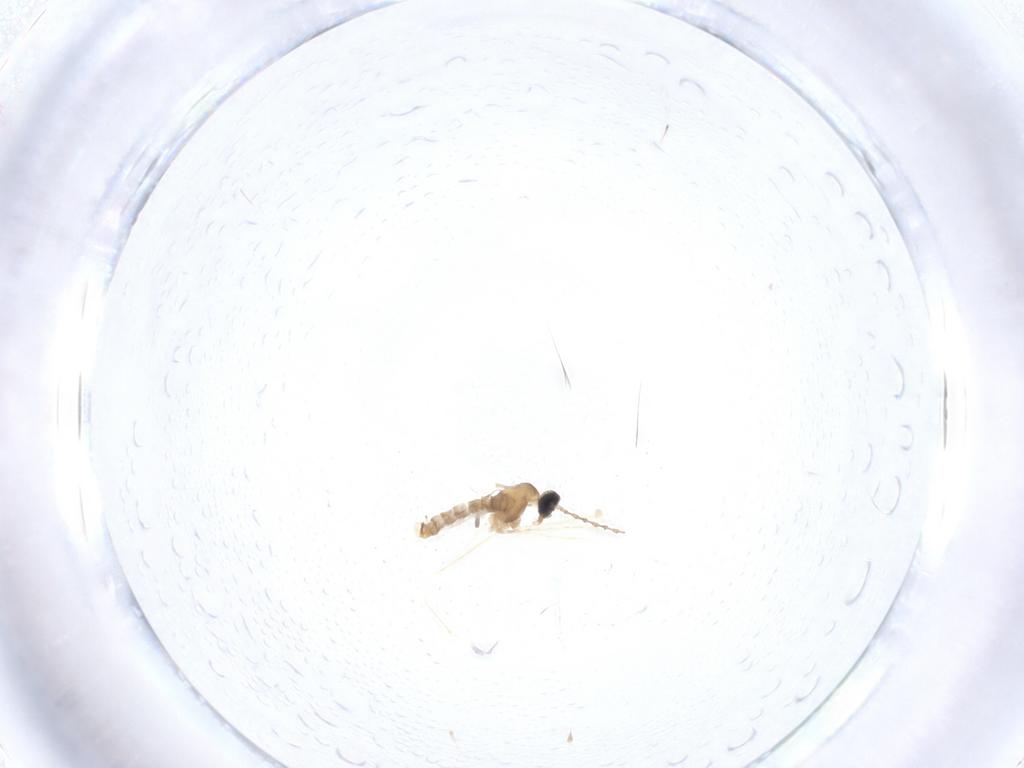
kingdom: Animalia
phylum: Arthropoda
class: Insecta
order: Diptera
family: Cecidomyiidae
